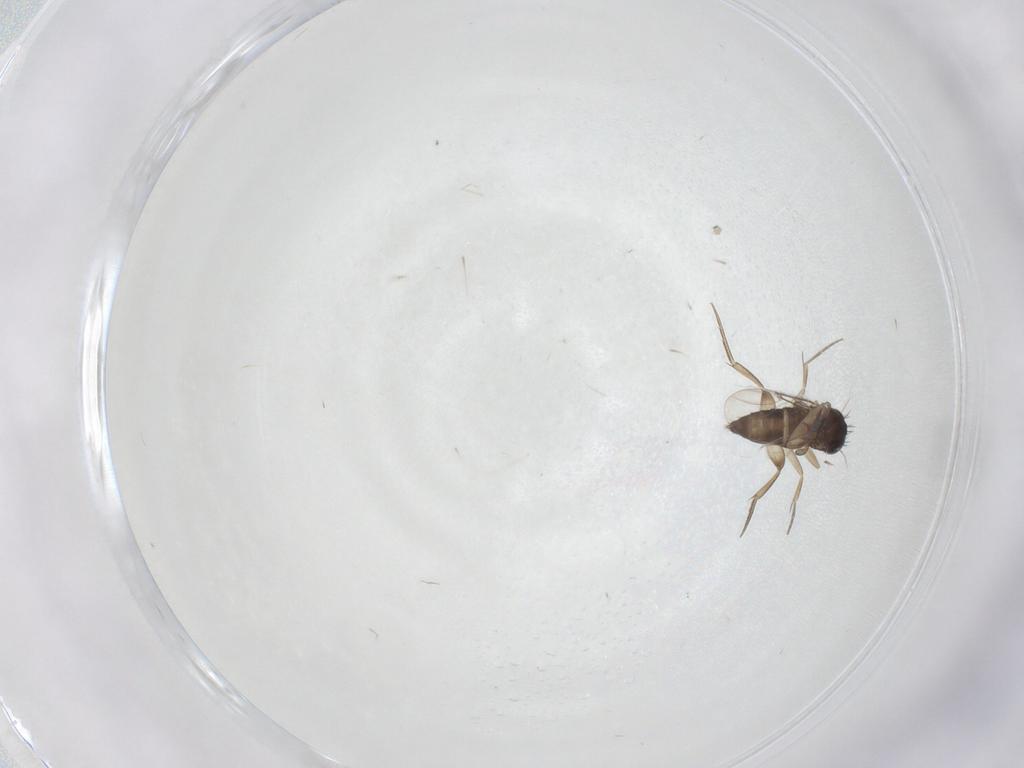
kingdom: Animalia
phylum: Arthropoda
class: Insecta
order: Diptera
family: Phoridae
